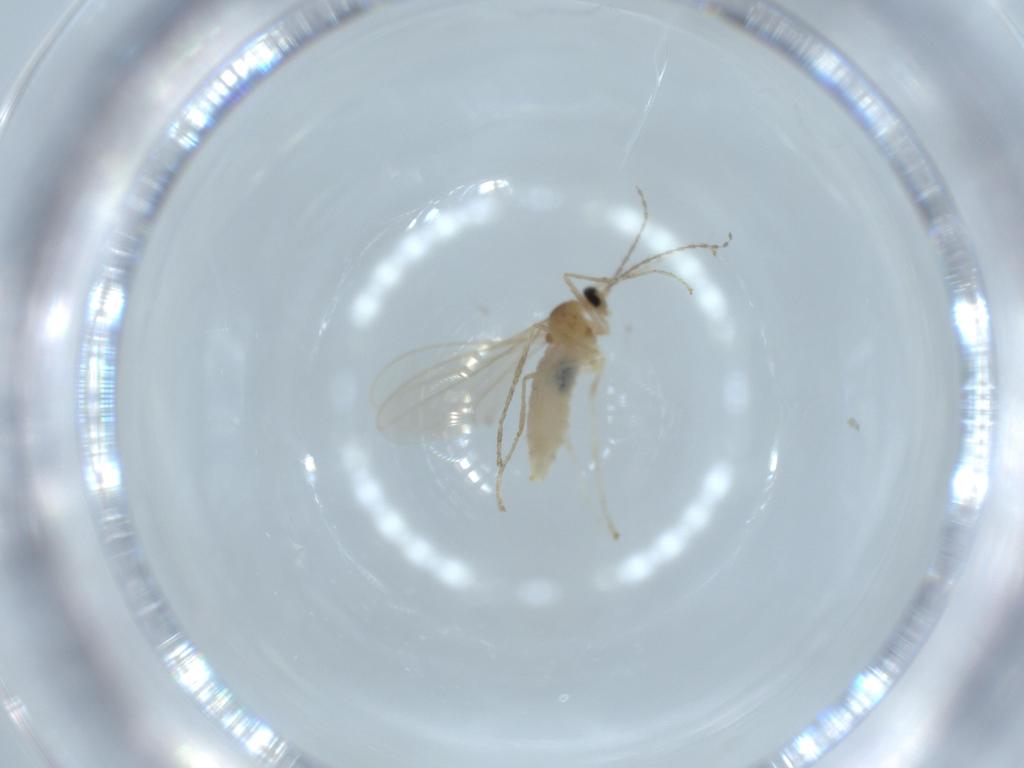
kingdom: Animalia
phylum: Arthropoda
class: Insecta
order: Diptera
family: Cecidomyiidae
